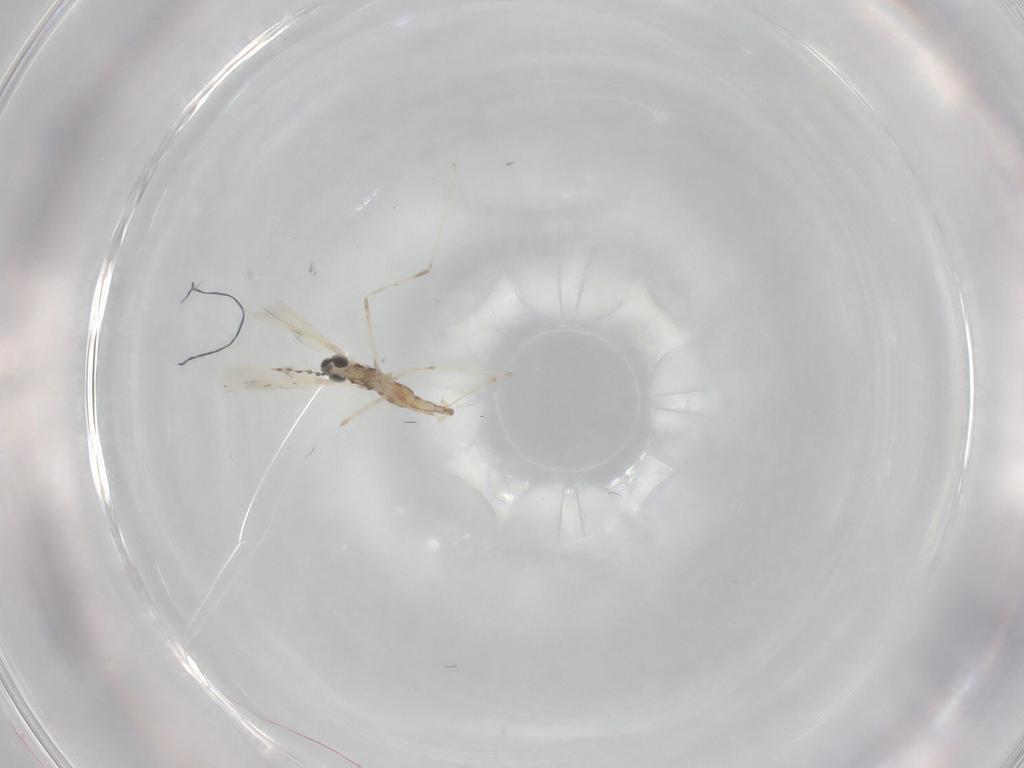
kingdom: Animalia
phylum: Arthropoda
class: Insecta
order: Diptera
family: Cecidomyiidae
